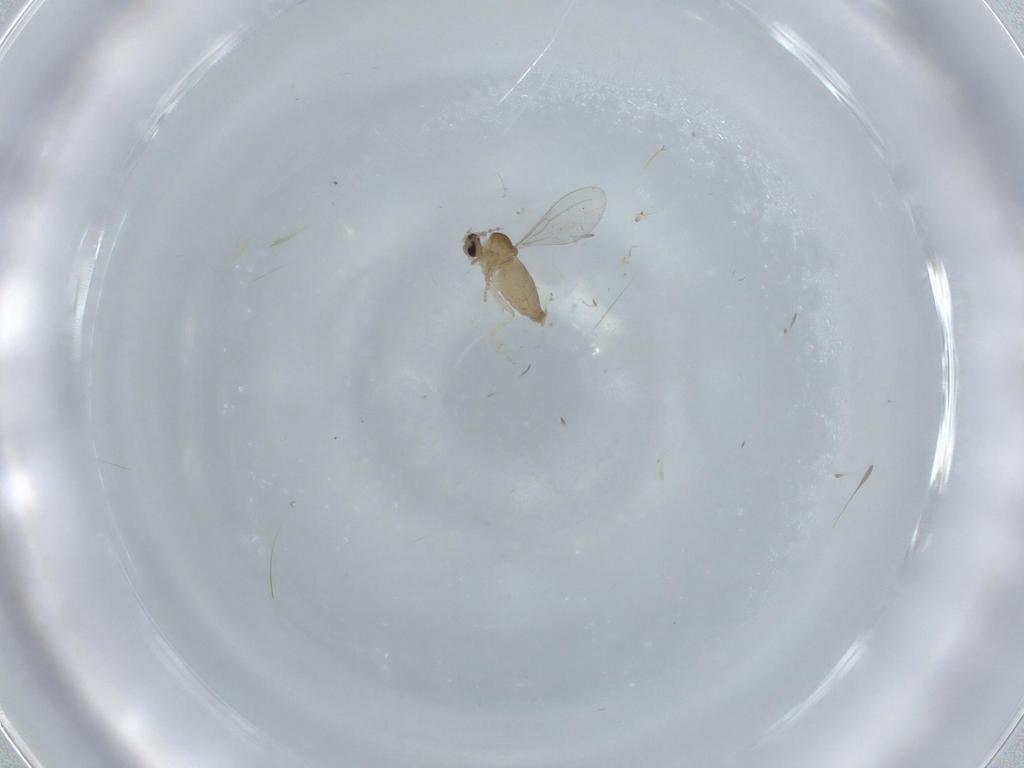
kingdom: Animalia
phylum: Arthropoda
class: Insecta
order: Diptera
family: Cecidomyiidae
